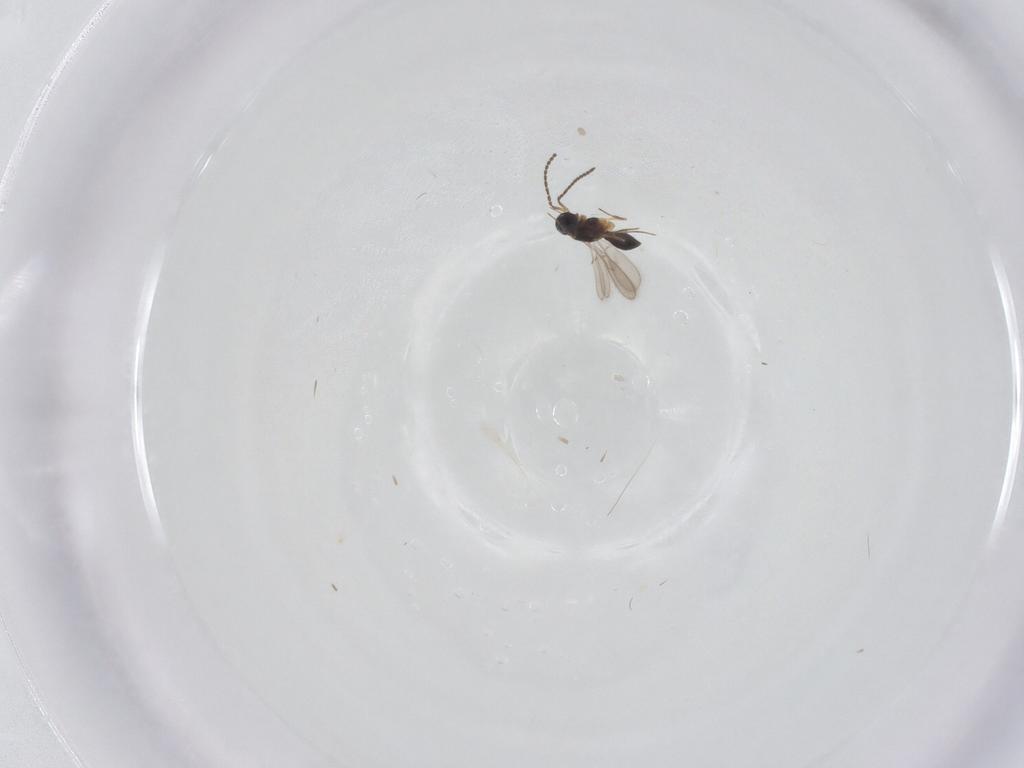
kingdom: Animalia
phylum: Arthropoda
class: Insecta
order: Hymenoptera
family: Scelionidae
